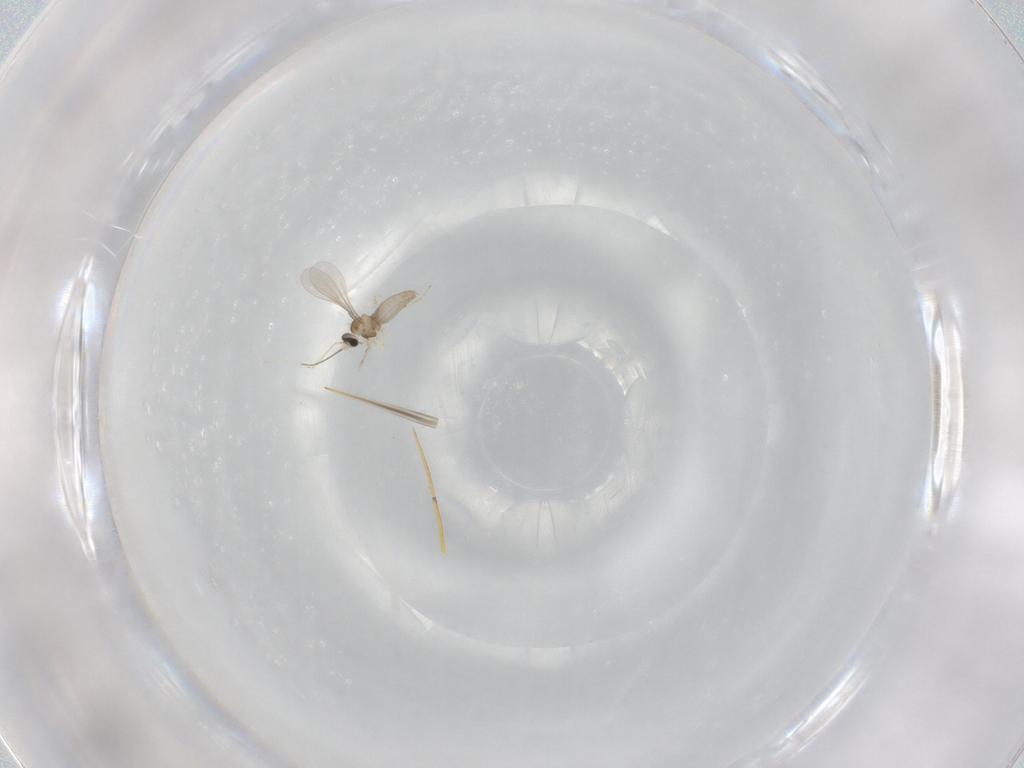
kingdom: Animalia
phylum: Arthropoda
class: Insecta
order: Diptera
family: Cecidomyiidae
